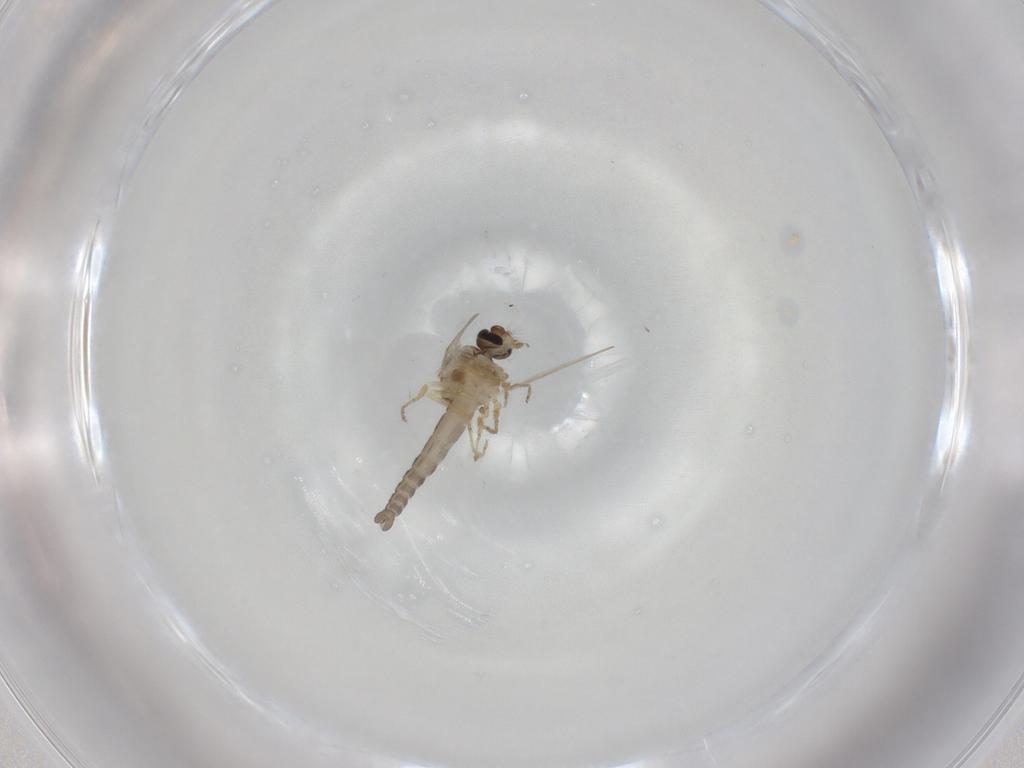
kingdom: Animalia
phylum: Arthropoda
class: Insecta
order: Diptera
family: Ceratopogonidae
